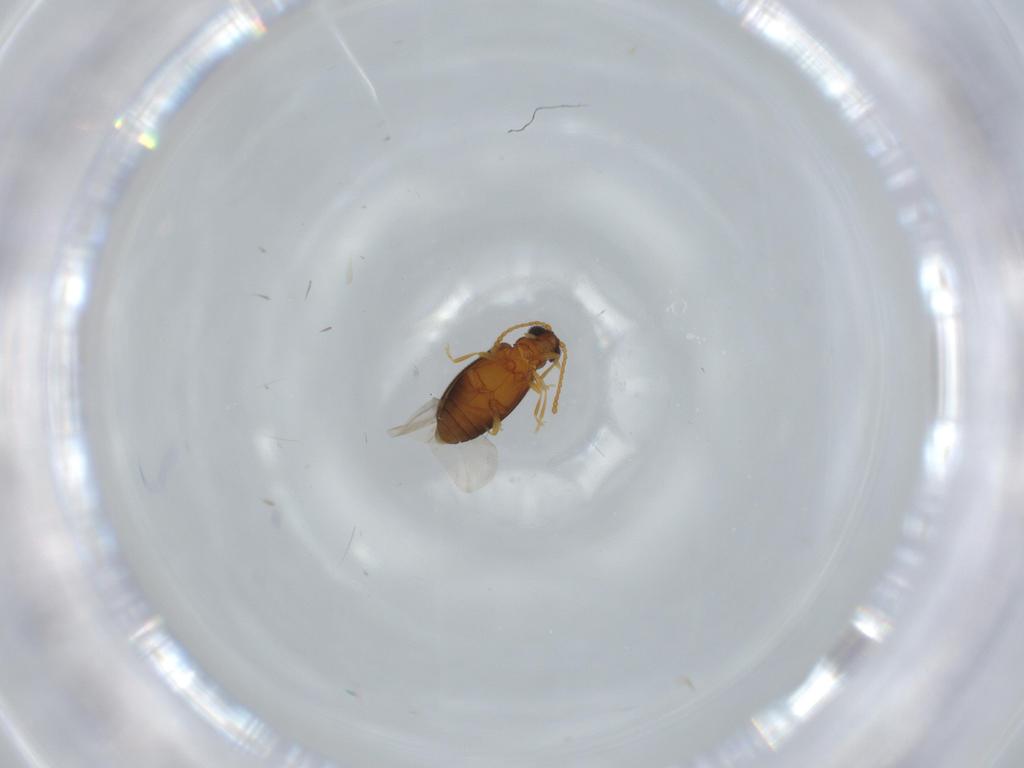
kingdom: Animalia
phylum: Arthropoda
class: Insecta
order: Coleoptera
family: Aderidae
